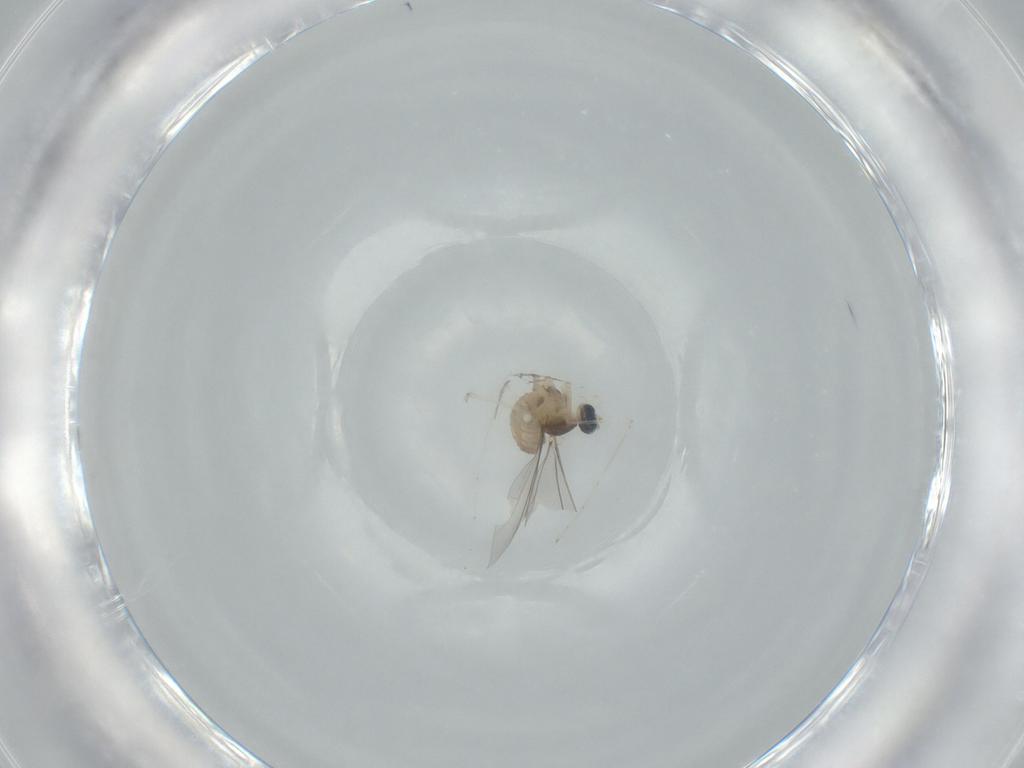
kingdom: Animalia
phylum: Arthropoda
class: Insecta
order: Diptera
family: Cecidomyiidae
